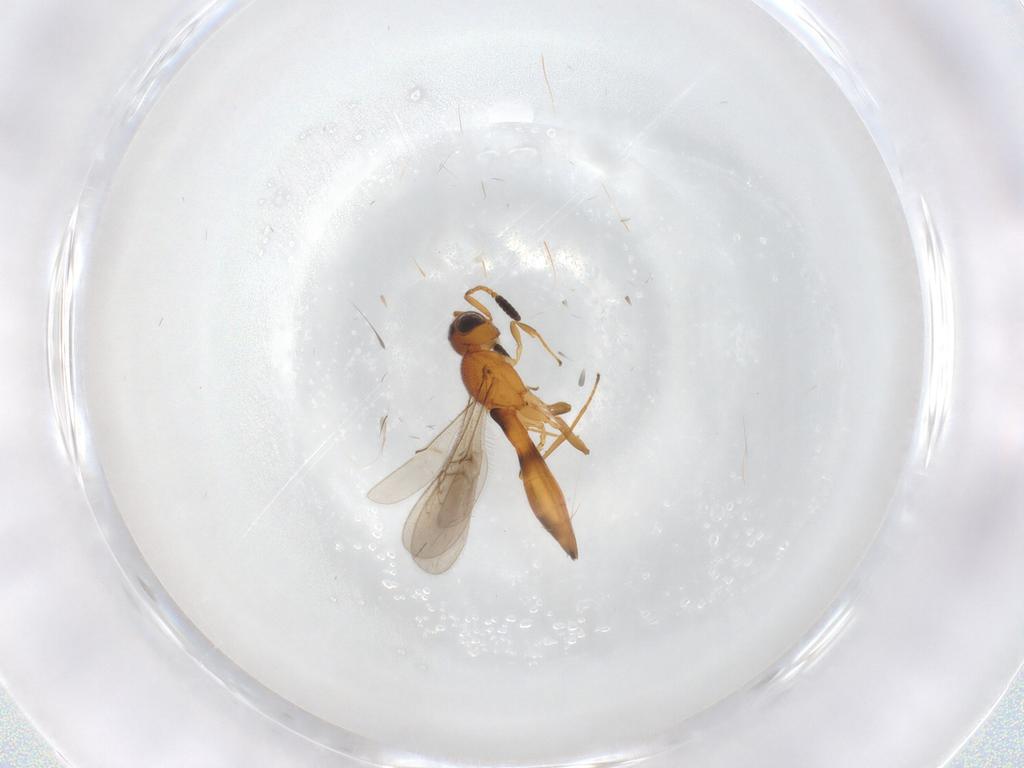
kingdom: Animalia
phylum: Arthropoda
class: Insecta
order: Hymenoptera
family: Scelionidae
